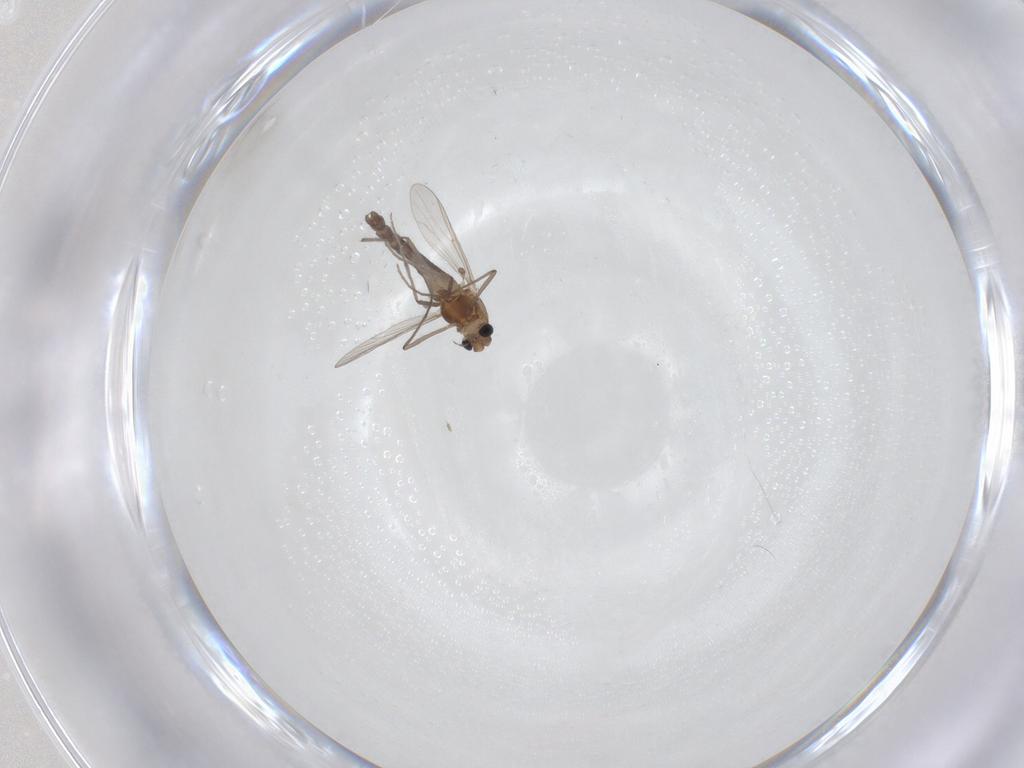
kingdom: Animalia
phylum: Arthropoda
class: Insecta
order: Diptera
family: Chironomidae
